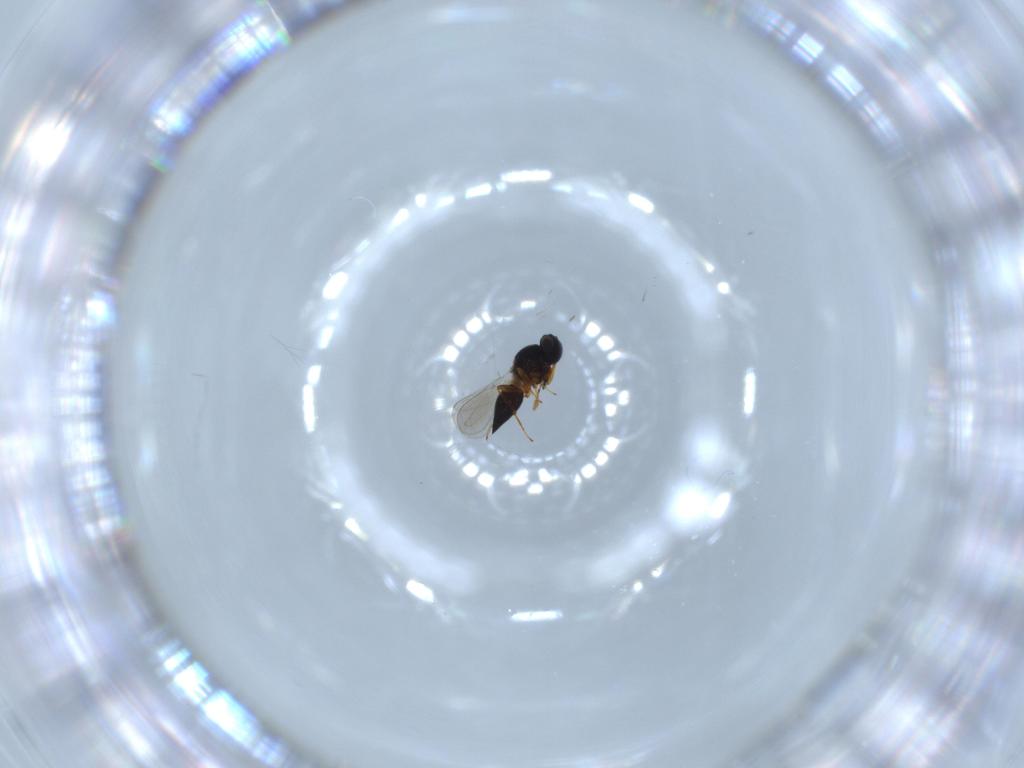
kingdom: Animalia
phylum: Arthropoda
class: Insecta
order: Hymenoptera
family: Platygastridae
